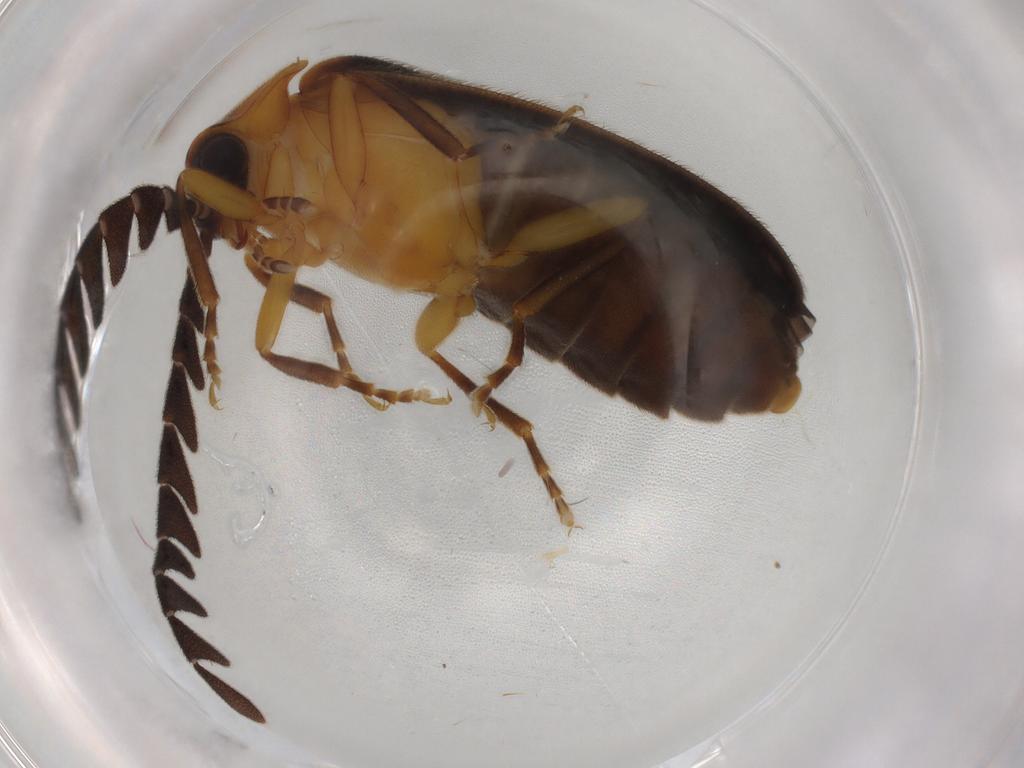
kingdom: Animalia
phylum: Arthropoda
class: Insecta
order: Coleoptera
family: Lampyridae
